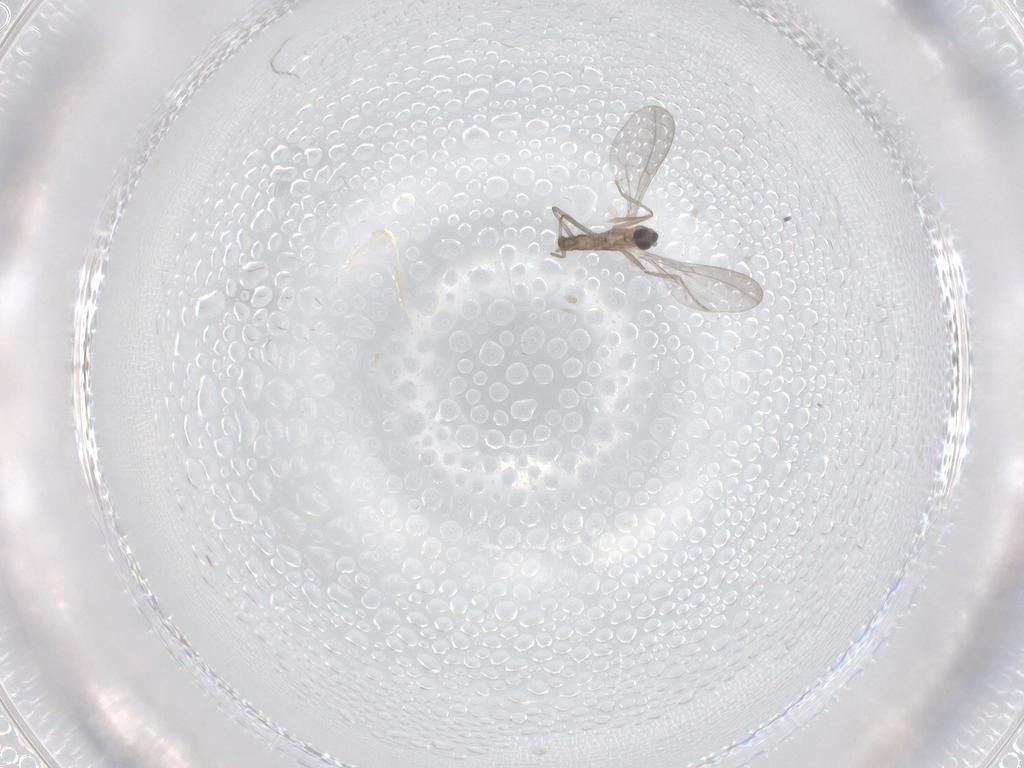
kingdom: Animalia
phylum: Arthropoda
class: Insecta
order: Diptera
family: Cecidomyiidae
